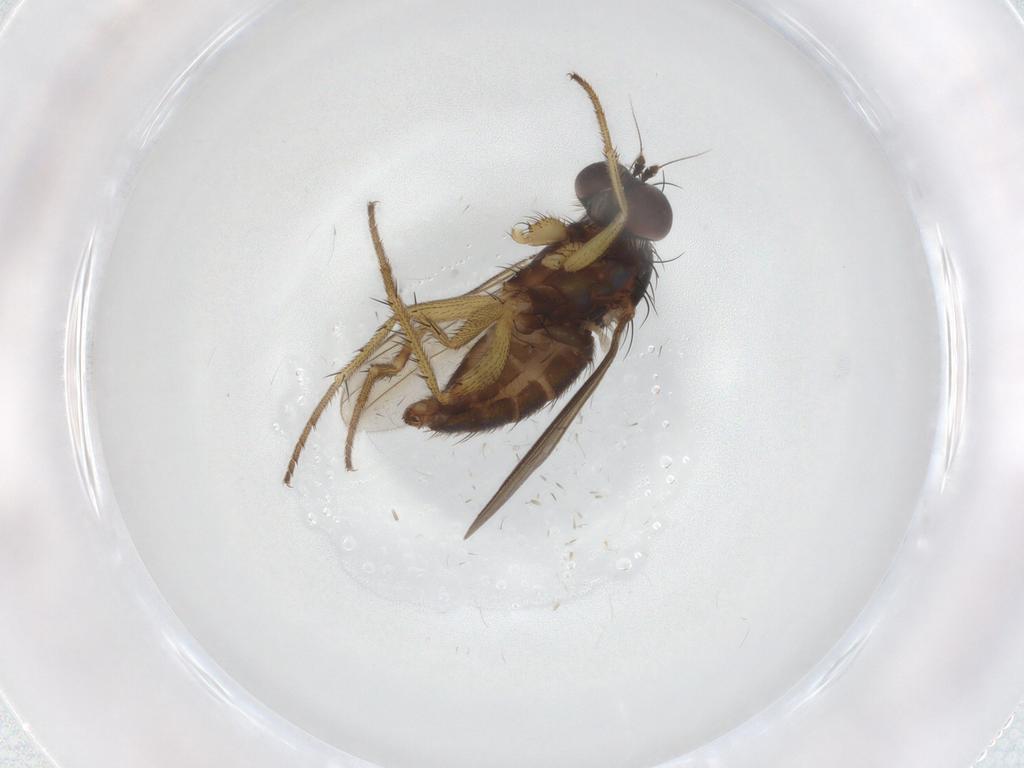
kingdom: Animalia
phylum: Arthropoda
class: Insecta
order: Diptera
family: Dolichopodidae
